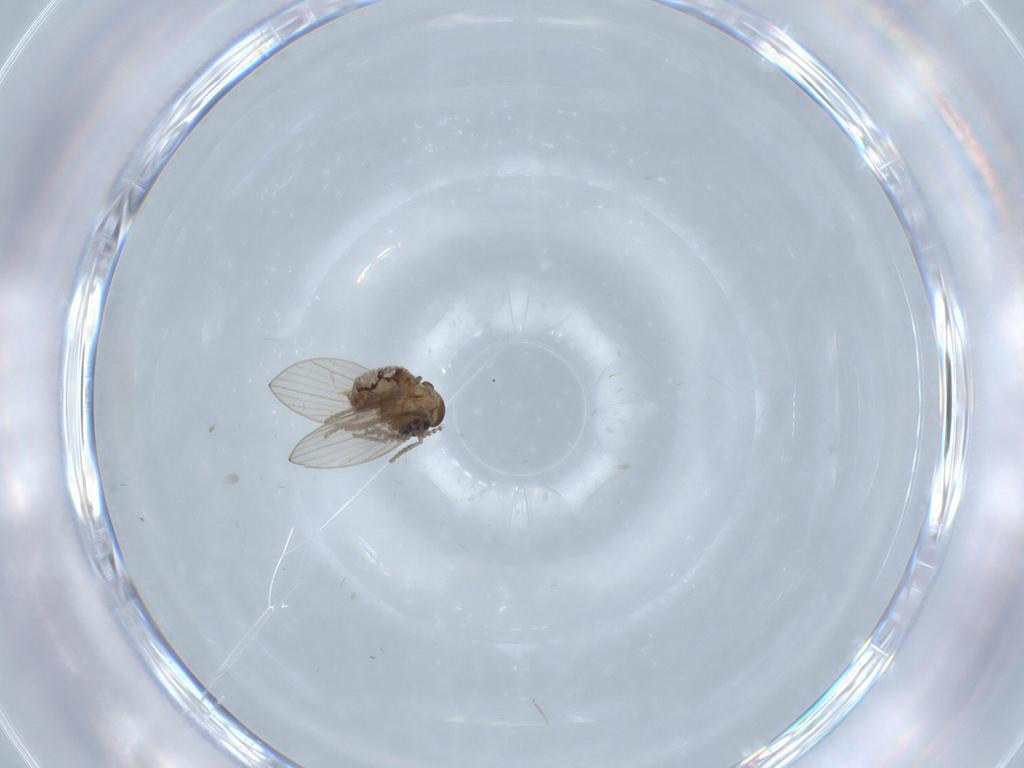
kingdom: Animalia
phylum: Arthropoda
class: Insecta
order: Diptera
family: Psychodidae
